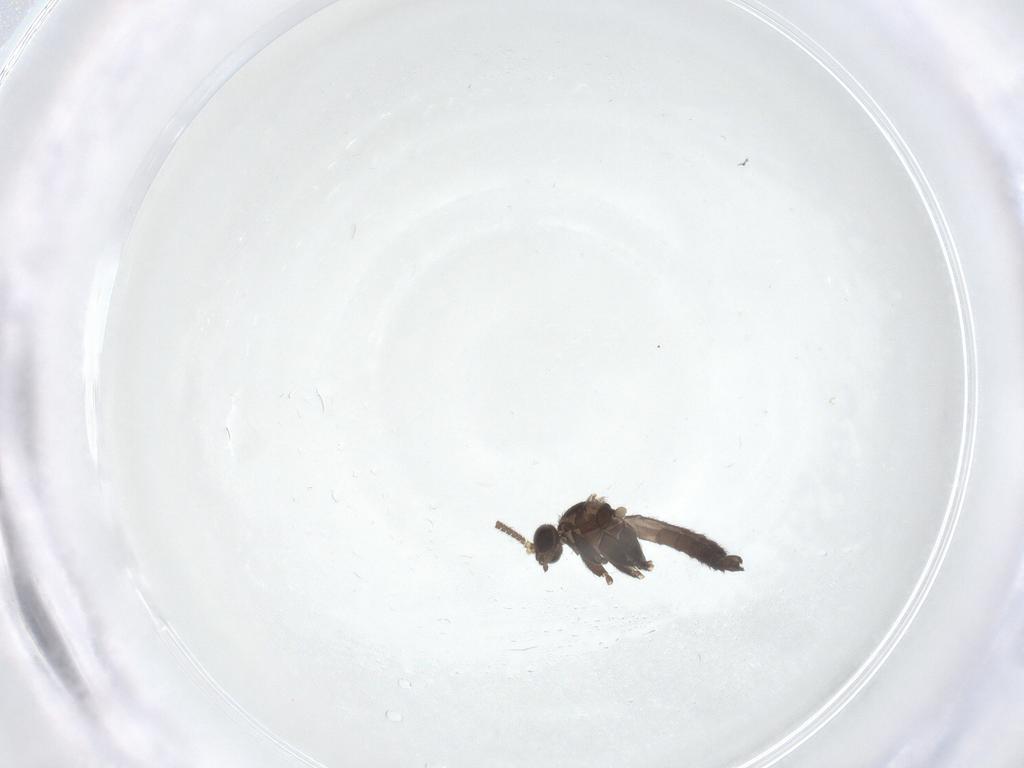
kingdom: Animalia
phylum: Arthropoda
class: Insecta
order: Diptera
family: Keroplatidae
